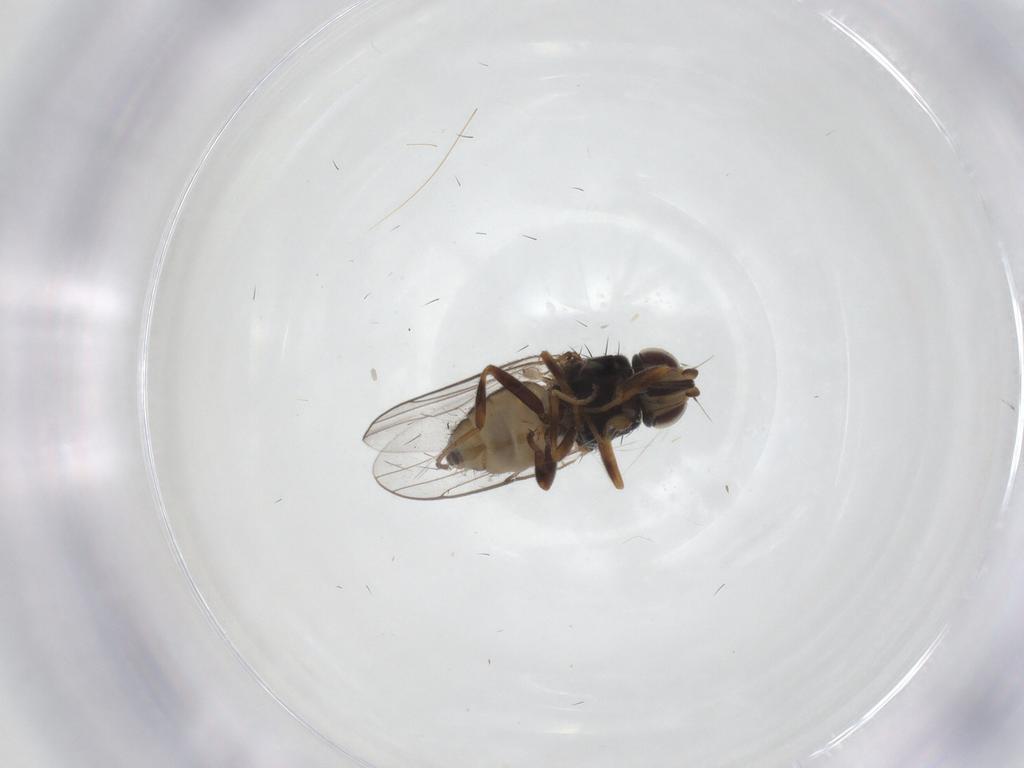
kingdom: Animalia
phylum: Arthropoda
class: Insecta
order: Diptera
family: Chloropidae
